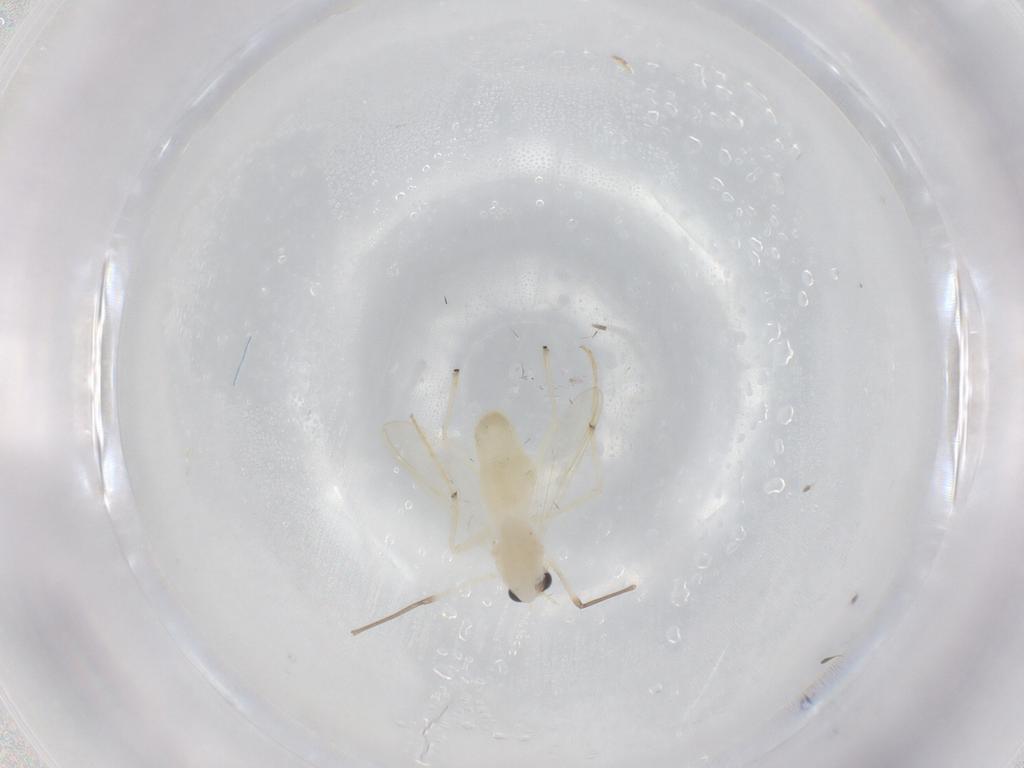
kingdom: Animalia
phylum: Arthropoda
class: Insecta
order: Diptera
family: Chironomidae
